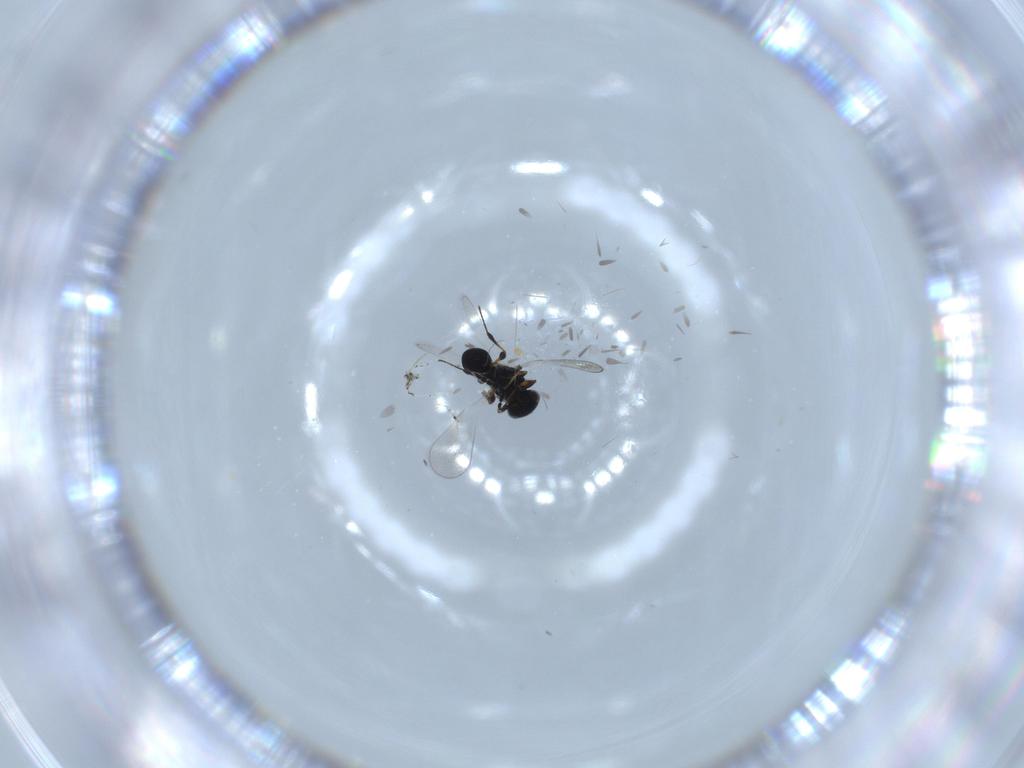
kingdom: Animalia
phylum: Arthropoda
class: Insecta
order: Hymenoptera
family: Platygastridae
